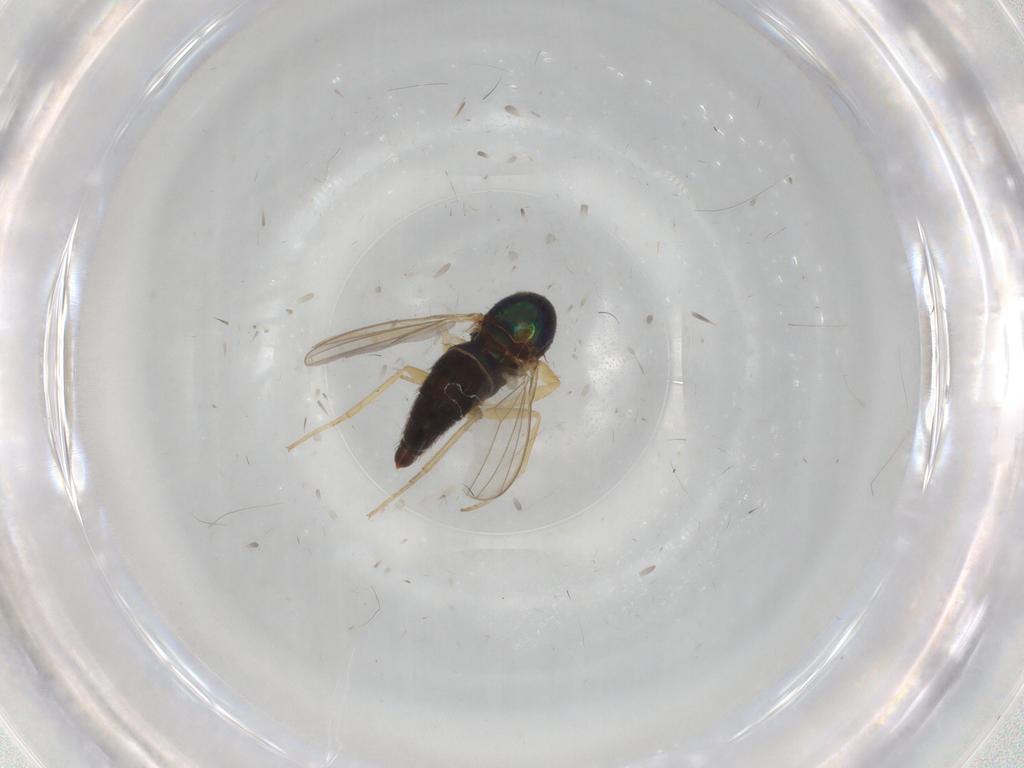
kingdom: Animalia
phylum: Arthropoda
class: Insecta
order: Diptera
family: Dolichopodidae
